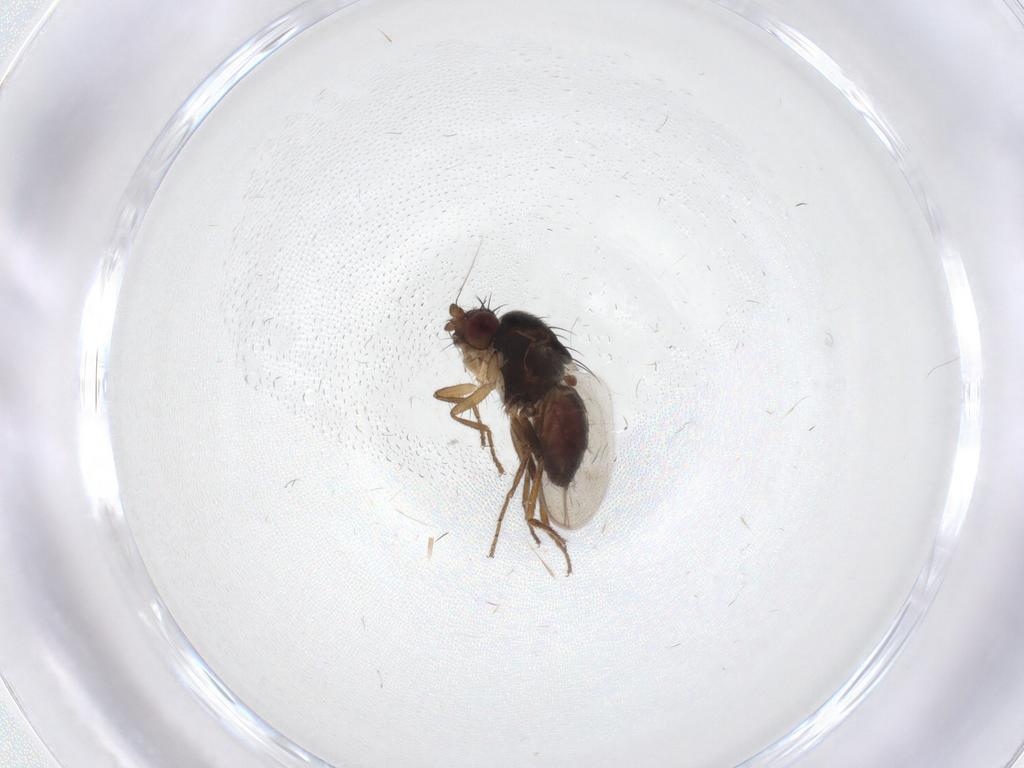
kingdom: Animalia
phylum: Arthropoda
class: Insecta
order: Diptera
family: Sphaeroceridae
